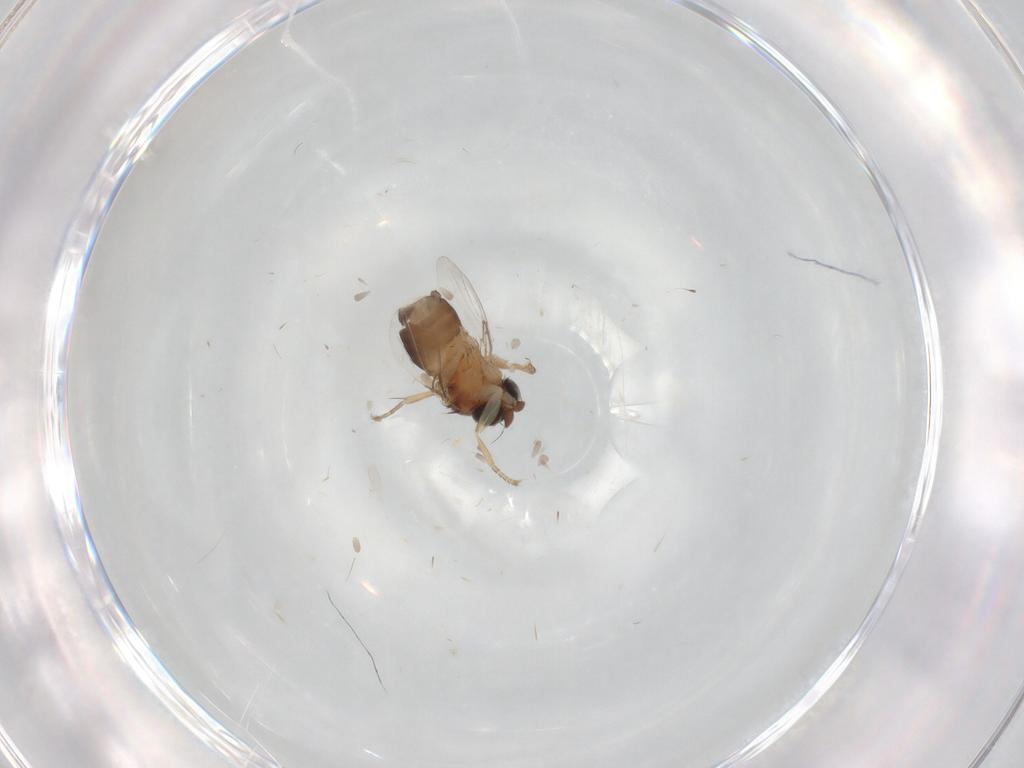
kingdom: Animalia
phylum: Arthropoda
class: Insecta
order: Diptera
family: Phoridae
